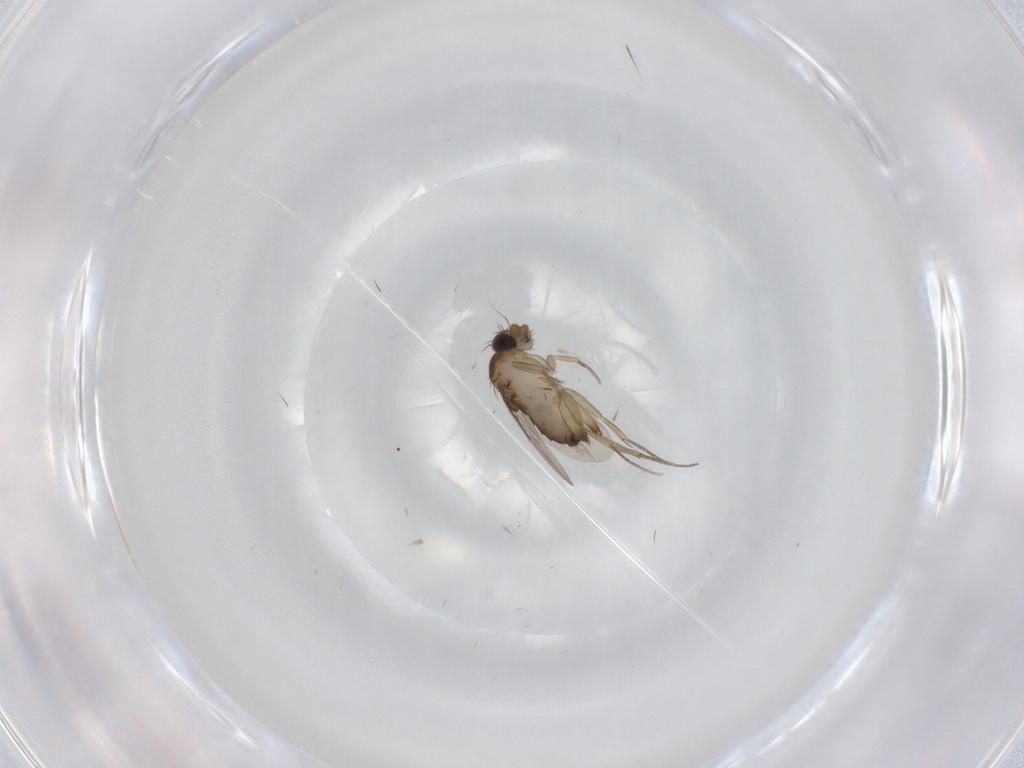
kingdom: Animalia
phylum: Arthropoda
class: Insecta
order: Diptera
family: Phoridae
